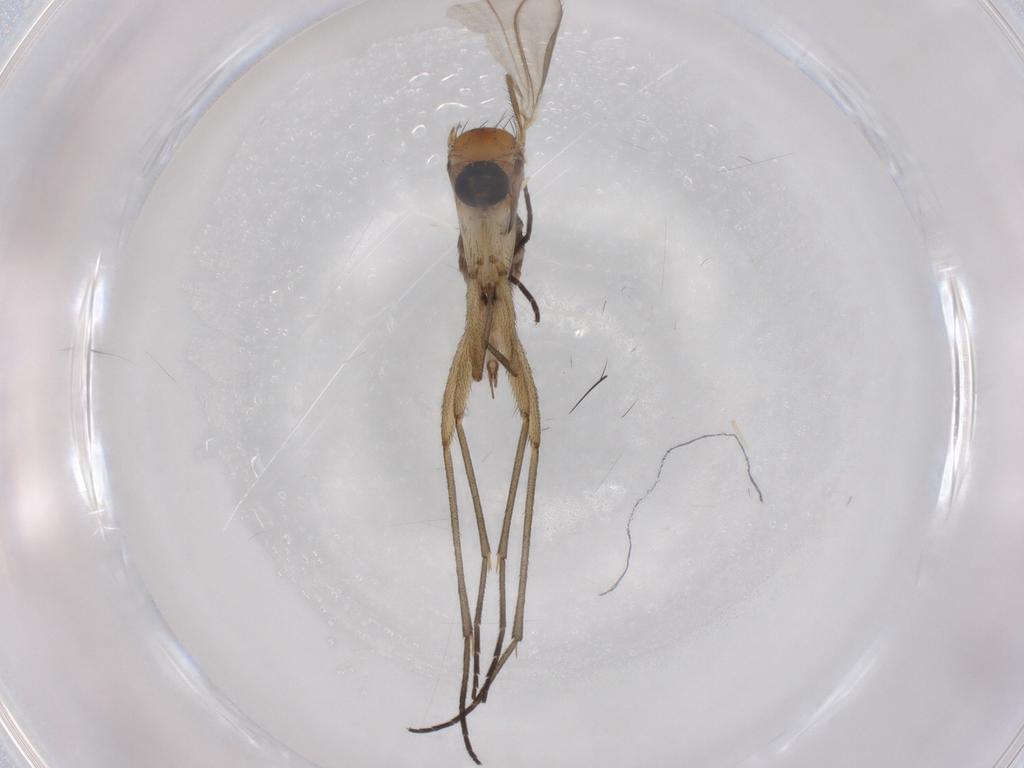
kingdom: Animalia
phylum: Arthropoda
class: Insecta
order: Diptera
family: Sciaridae
